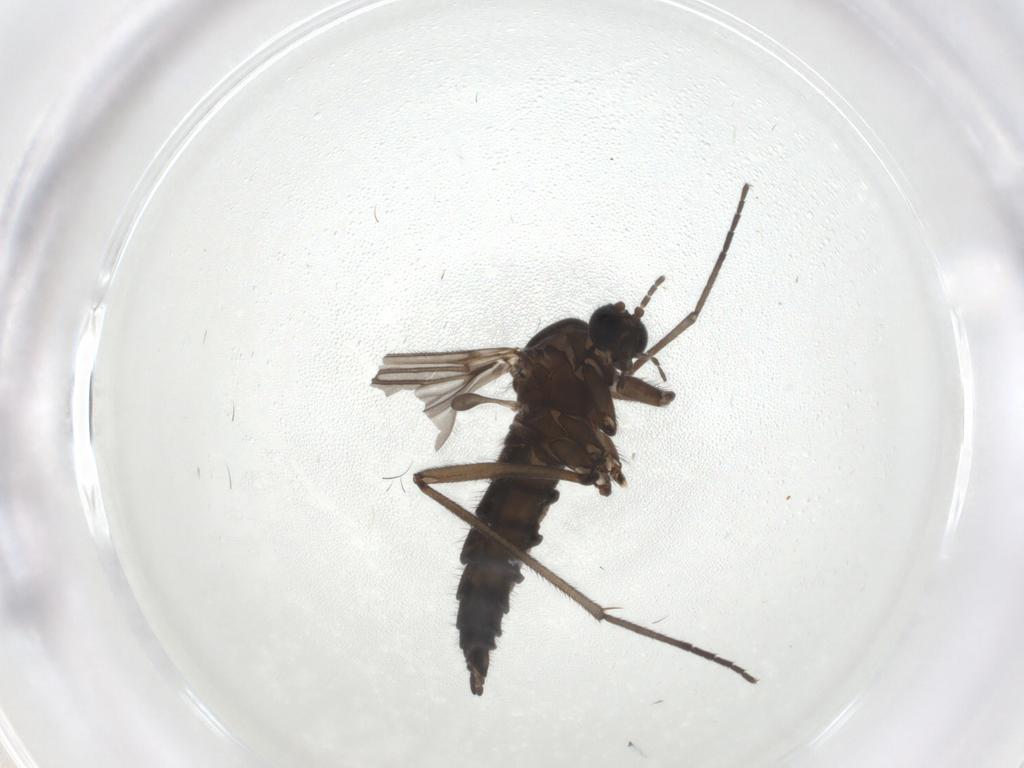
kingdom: Animalia
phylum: Arthropoda
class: Insecta
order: Diptera
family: Sciaridae
